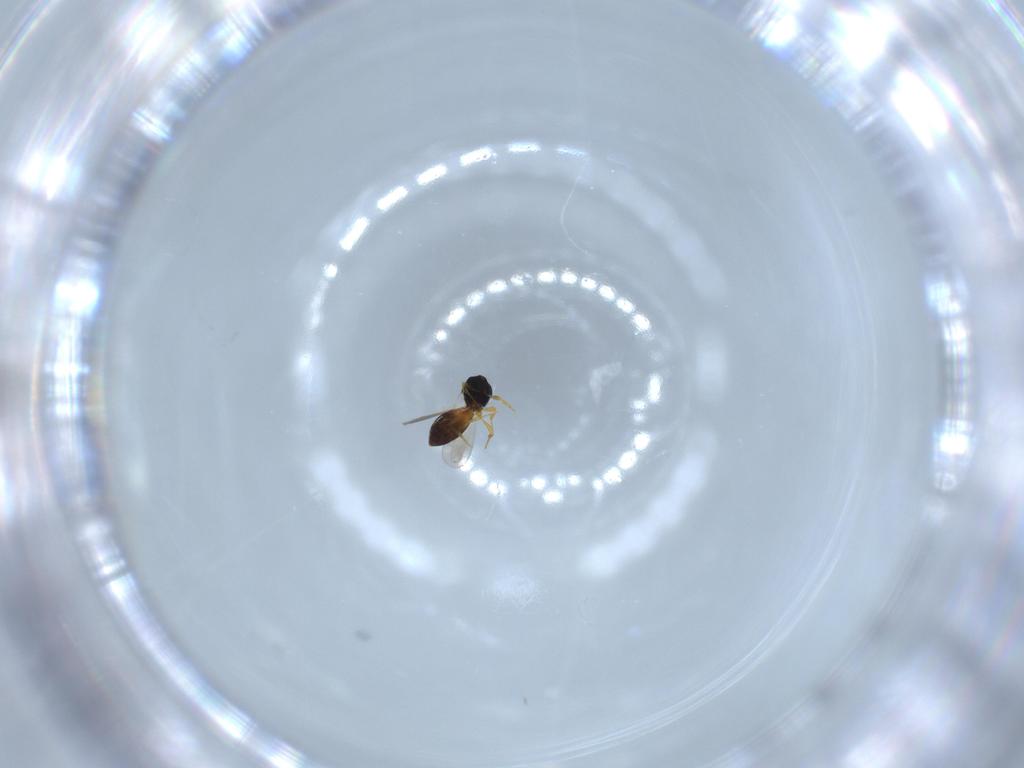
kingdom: Animalia
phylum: Arthropoda
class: Insecta
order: Hymenoptera
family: Platygastridae
